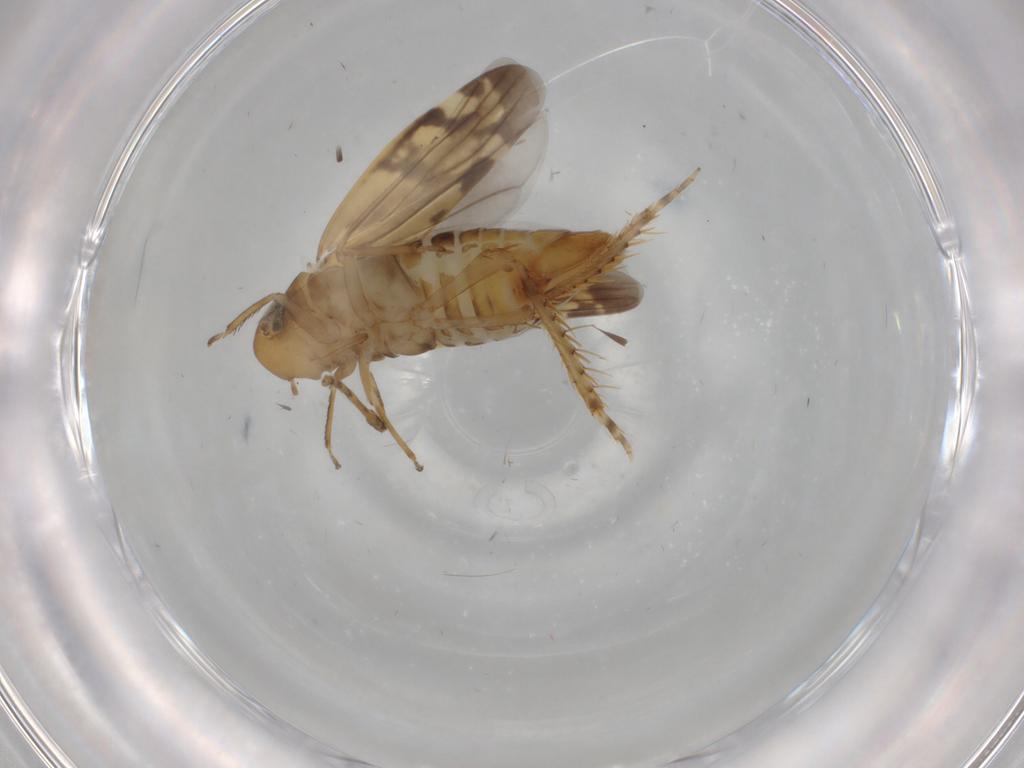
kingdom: Animalia
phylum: Arthropoda
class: Insecta
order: Hemiptera
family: Cicadellidae
